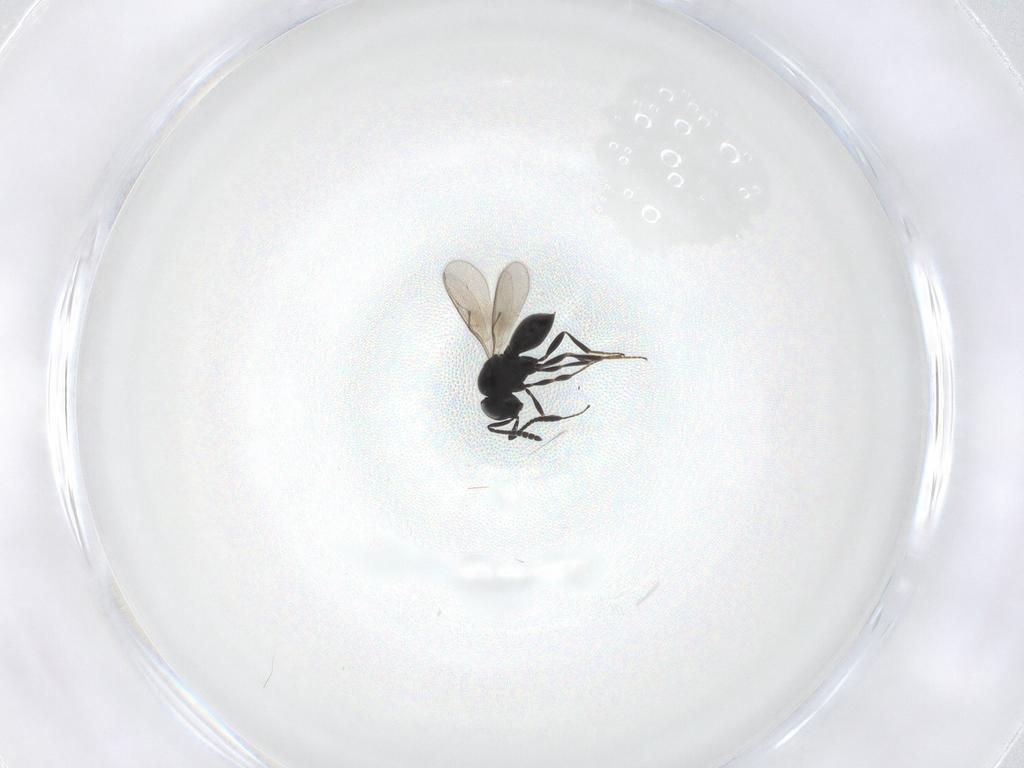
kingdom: Animalia
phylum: Arthropoda
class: Insecta
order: Hymenoptera
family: Scelionidae
